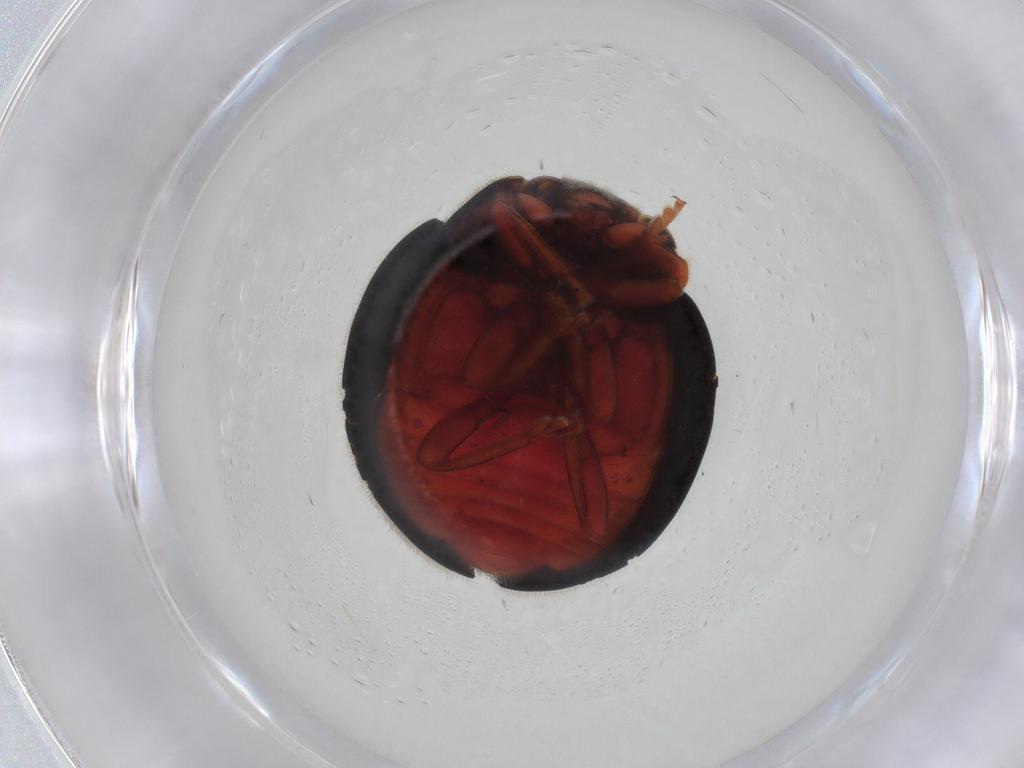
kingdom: Animalia
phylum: Arthropoda
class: Insecta
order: Coleoptera
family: Coccinellidae
